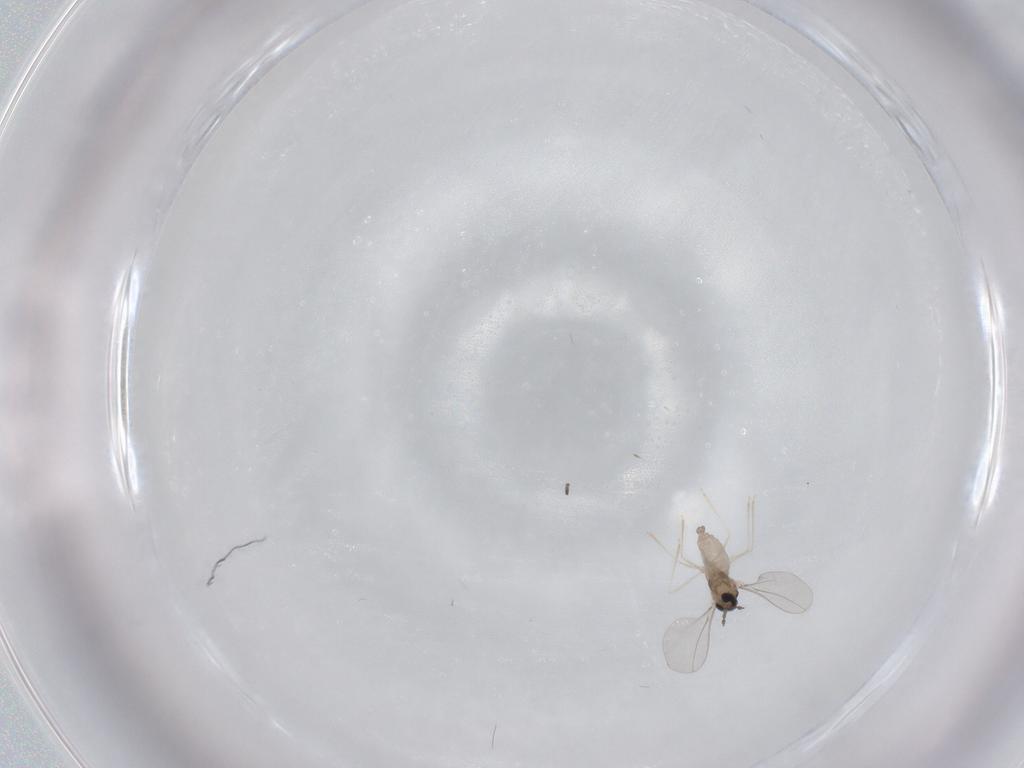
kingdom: Animalia
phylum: Arthropoda
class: Insecta
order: Diptera
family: Cecidomyiidae
